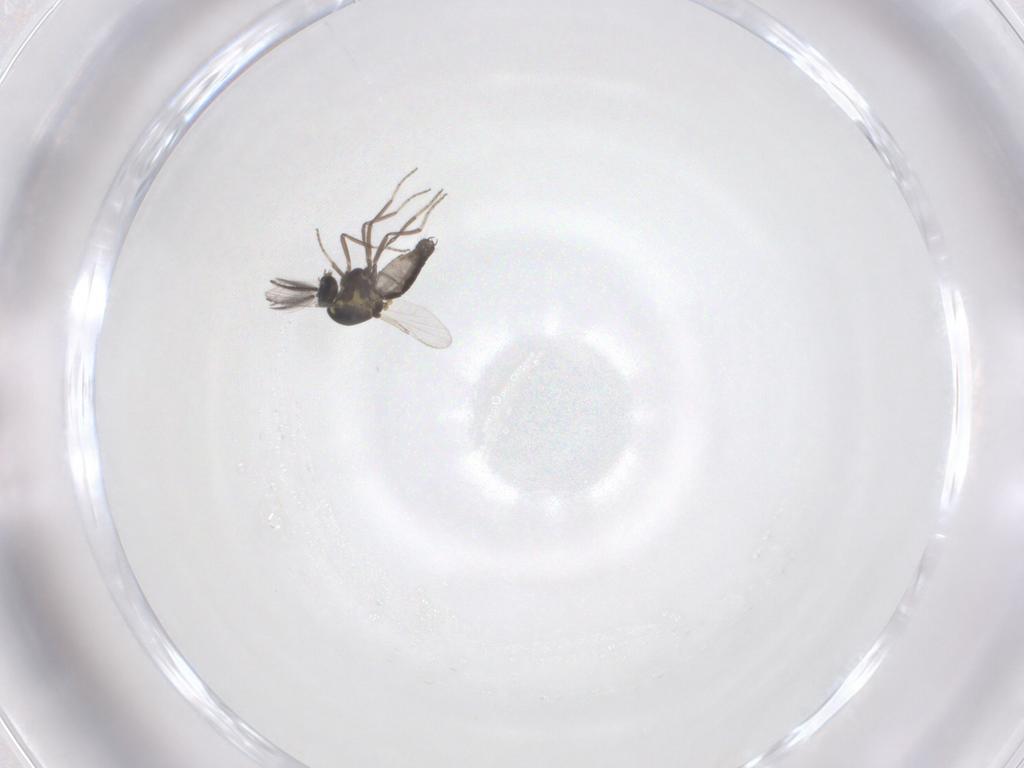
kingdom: Animalia
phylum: Arthropoda
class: Insecta
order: Diptera
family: Ceratopogonidae
